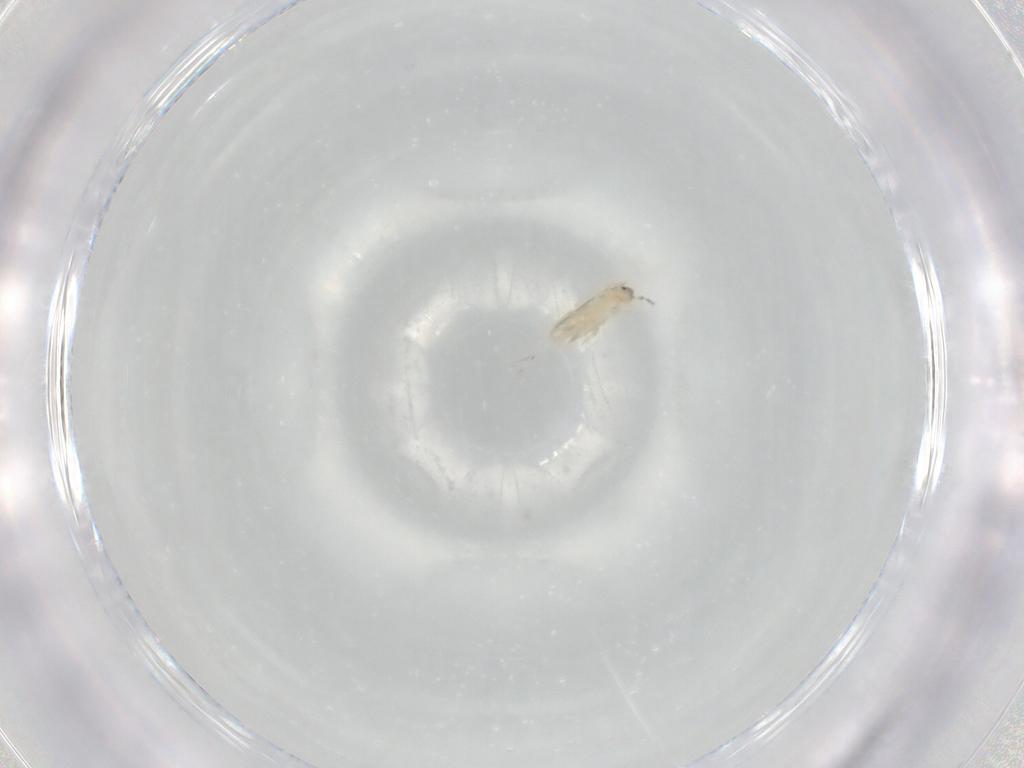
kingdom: Animalia
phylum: Arthropoda
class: Collembola
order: Entomobryomorpha
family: Entomobryidae
